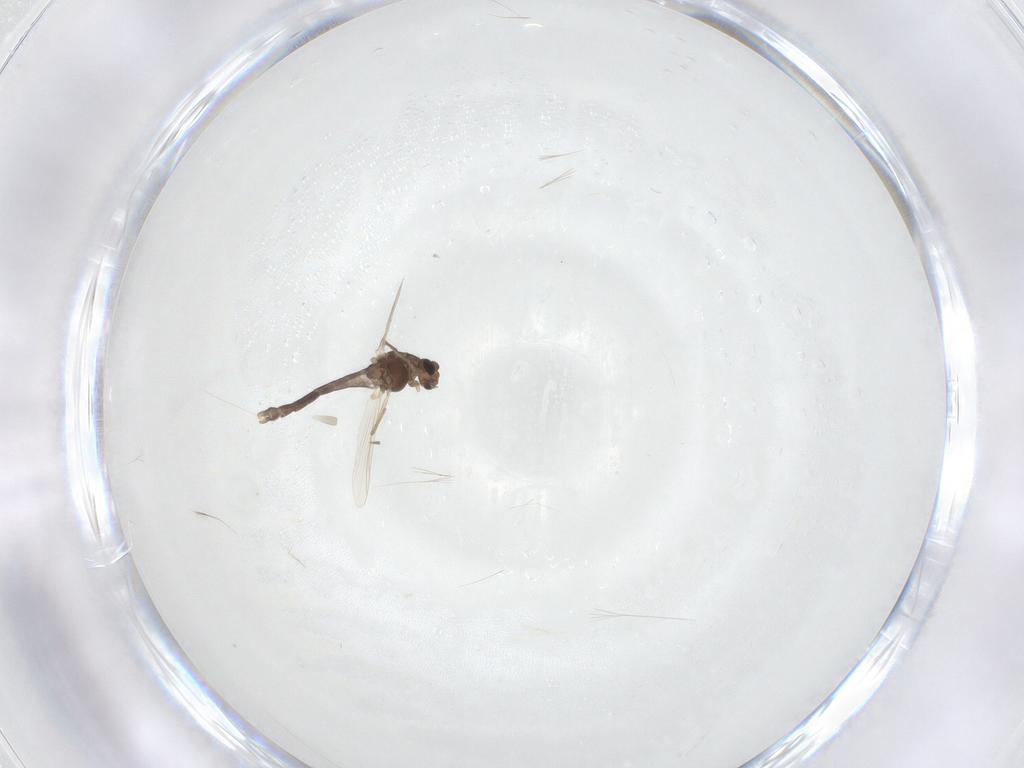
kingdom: Animalia
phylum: Arthropoda
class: Insecta
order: Diptera
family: Chironomidae
